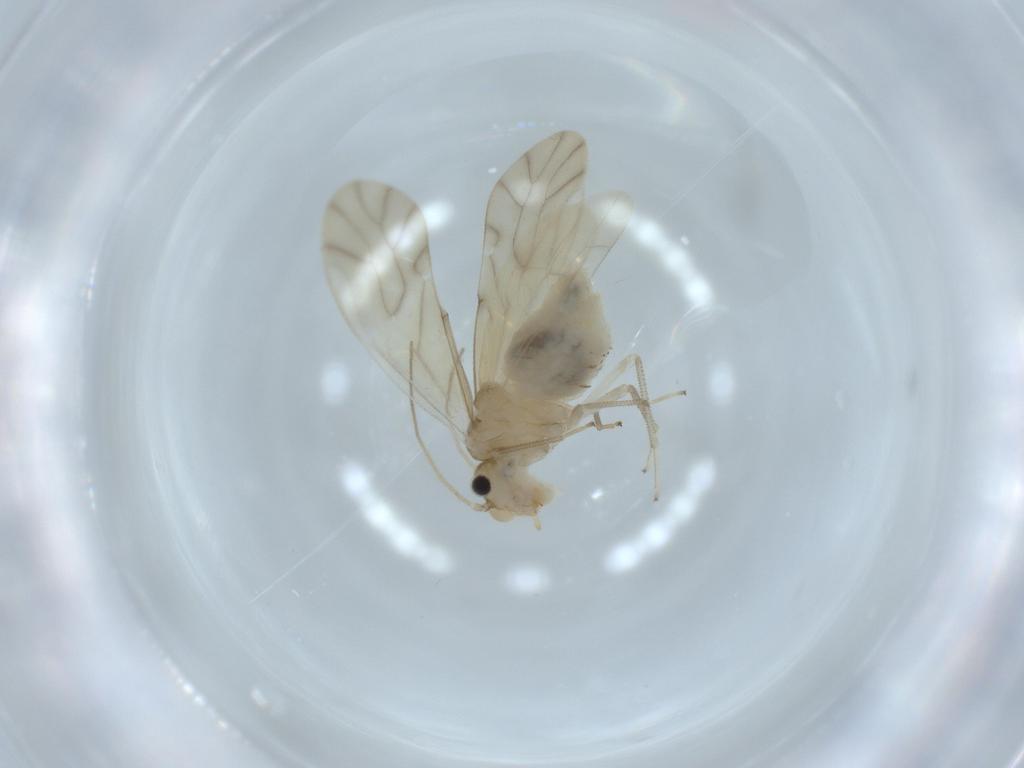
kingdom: Animalia
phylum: Arthropoda
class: Insecta
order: Psocodea
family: Caeciliusidae
